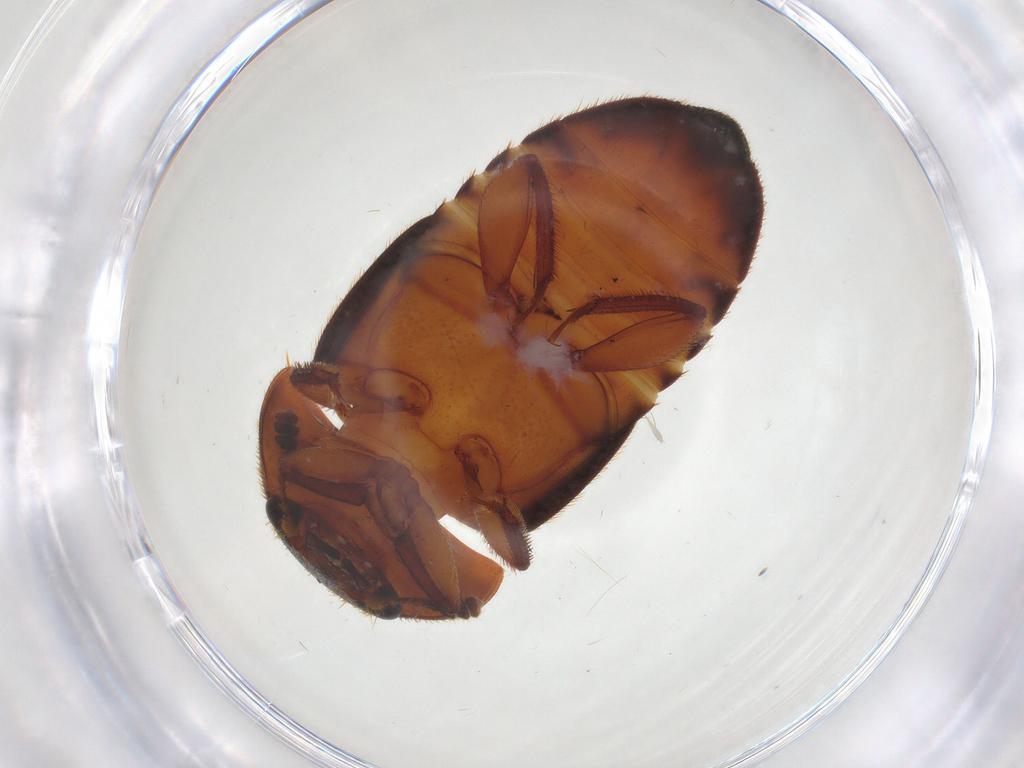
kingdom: Animalia
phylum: Arthropoda
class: Insecta
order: Coleoptera
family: Nitidulidae
